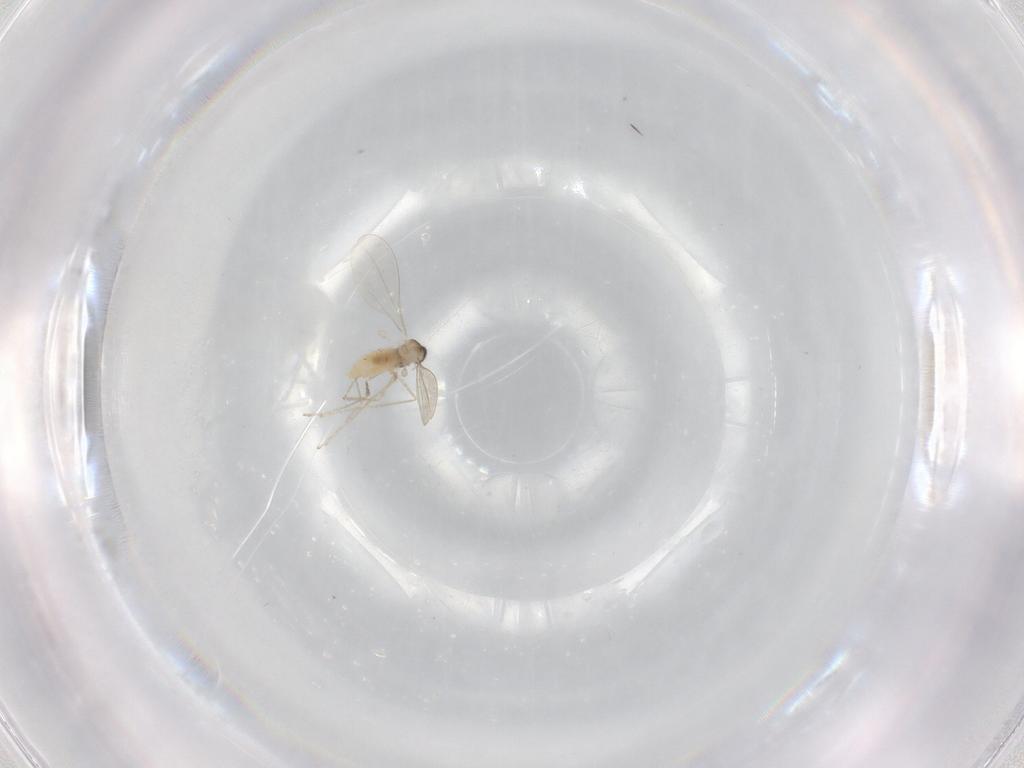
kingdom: Animalia
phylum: Arthropoda
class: Insecta
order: Diptera
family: Cecidomyiidae
